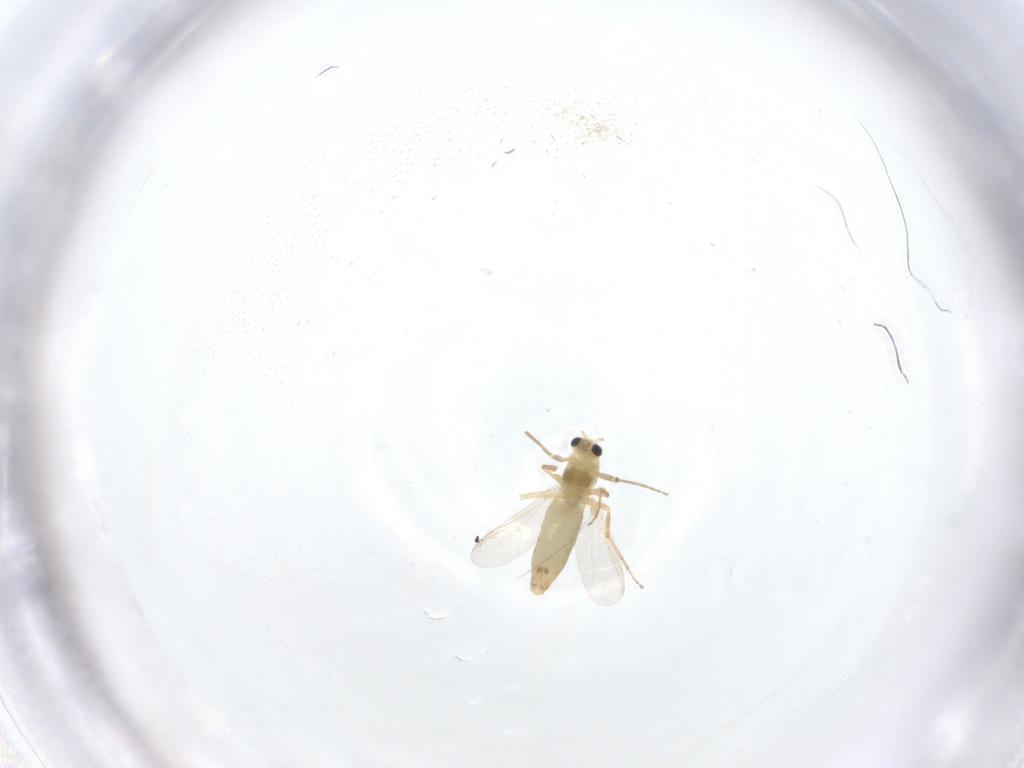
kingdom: Animalia
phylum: Arthropoda
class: Insecta
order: Diptera
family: Chironomidae
